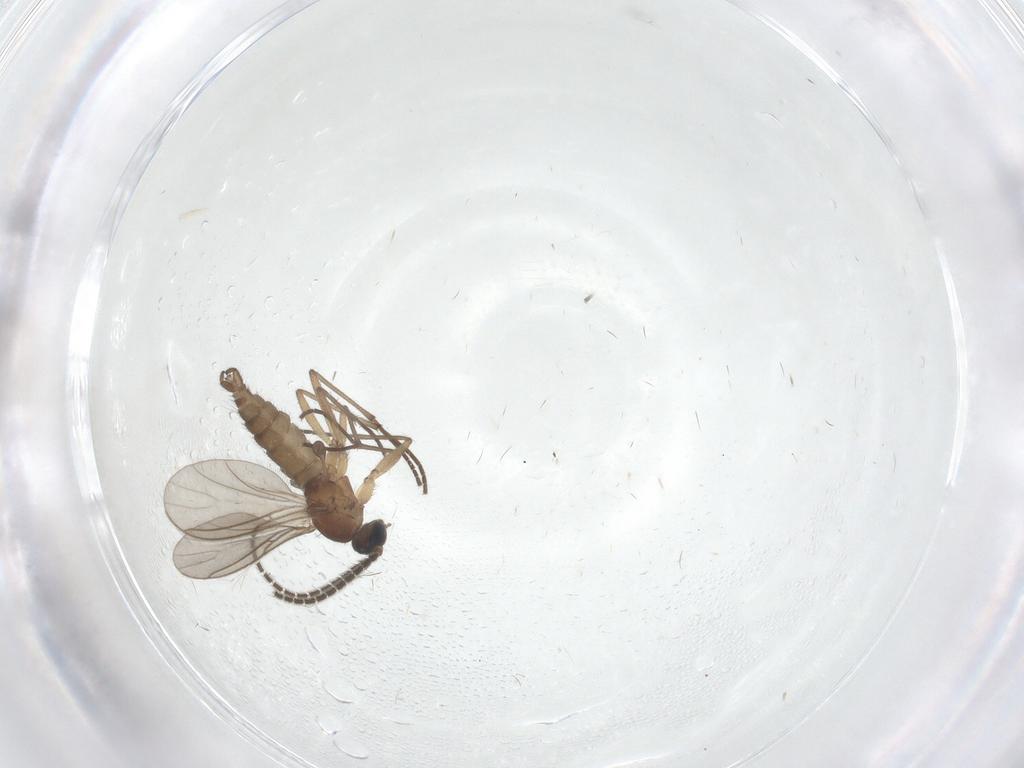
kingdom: Animalia
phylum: Arthropoda
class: Insecta
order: Diptera
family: Sciaridae
